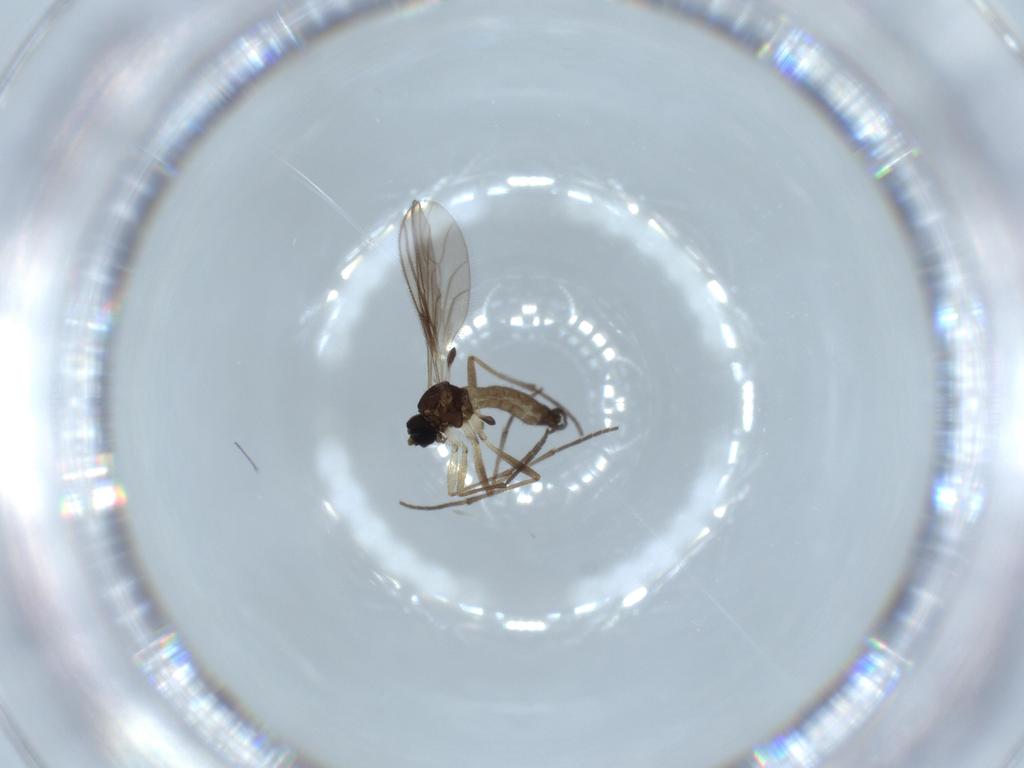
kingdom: Animalia
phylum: Arthropoda
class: Insecta
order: Diptera
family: Sciaridae
